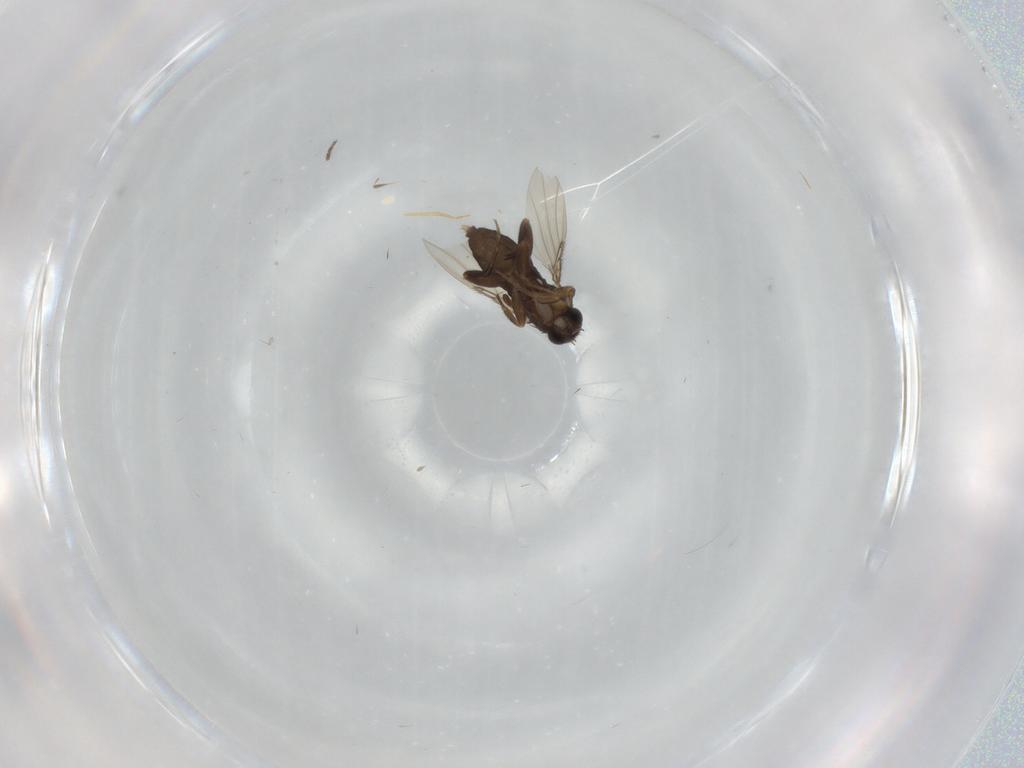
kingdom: Animalia
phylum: Arthropoda
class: Insecta
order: Diptera
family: Phoridae
